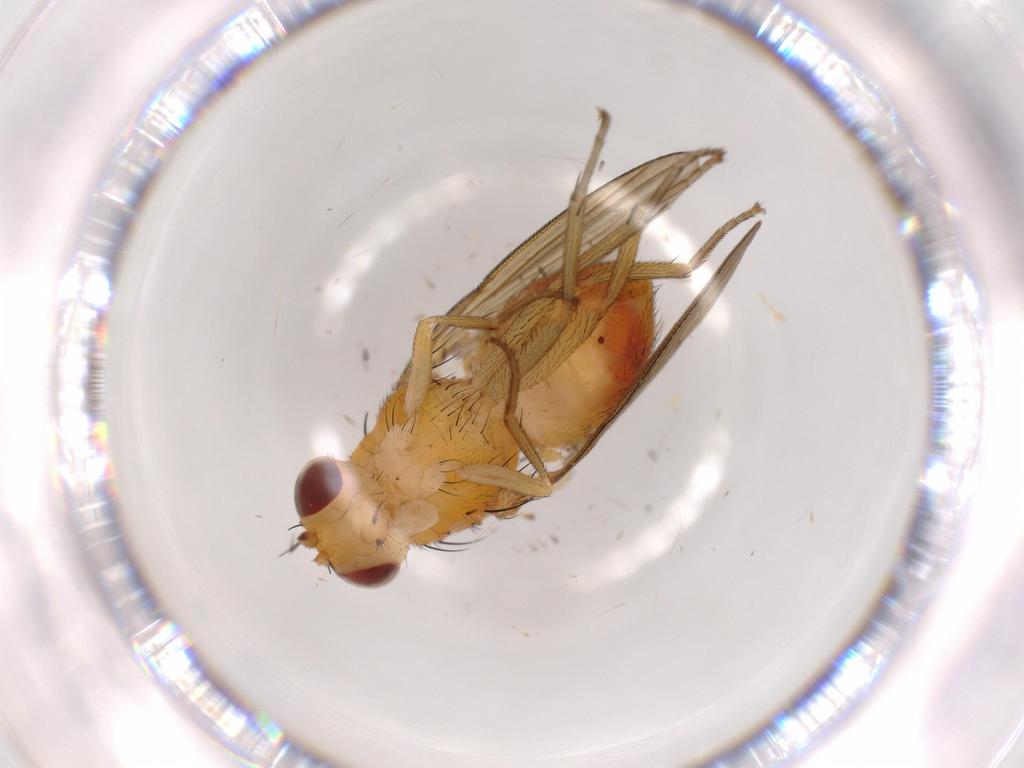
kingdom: Animalia
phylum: Arthropoda
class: Insecta
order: Diptera
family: Lauxaniidae
